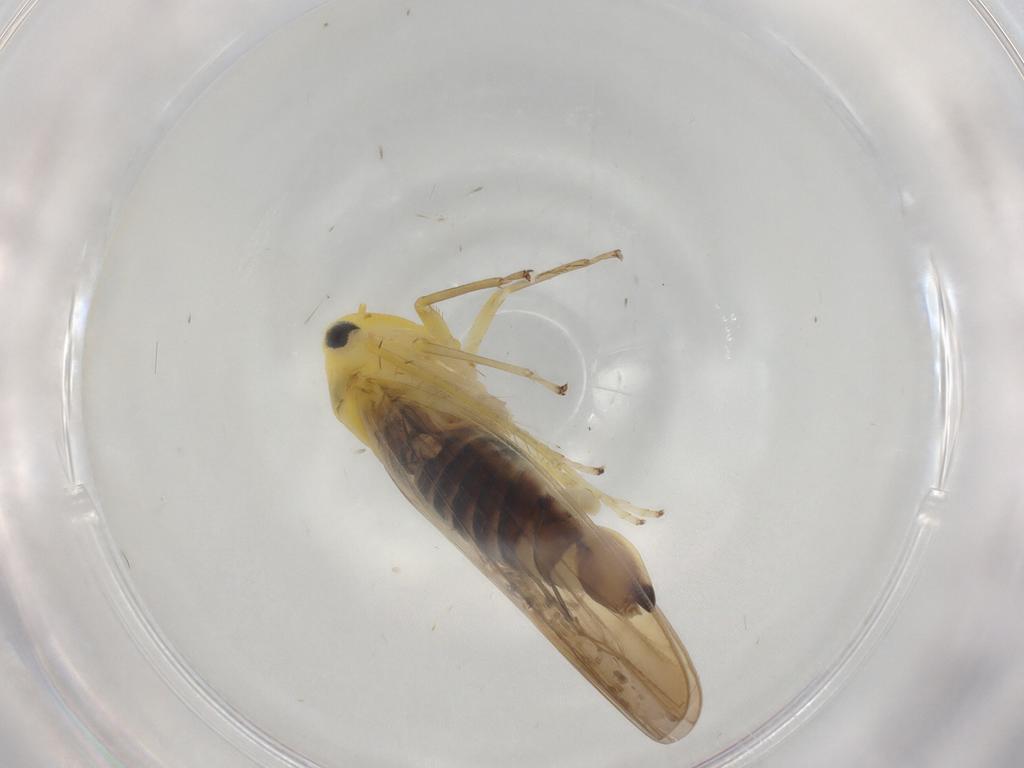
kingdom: Animalia
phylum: Arthropoda
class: Insecta
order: Hemiptera
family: Cicadellidae
